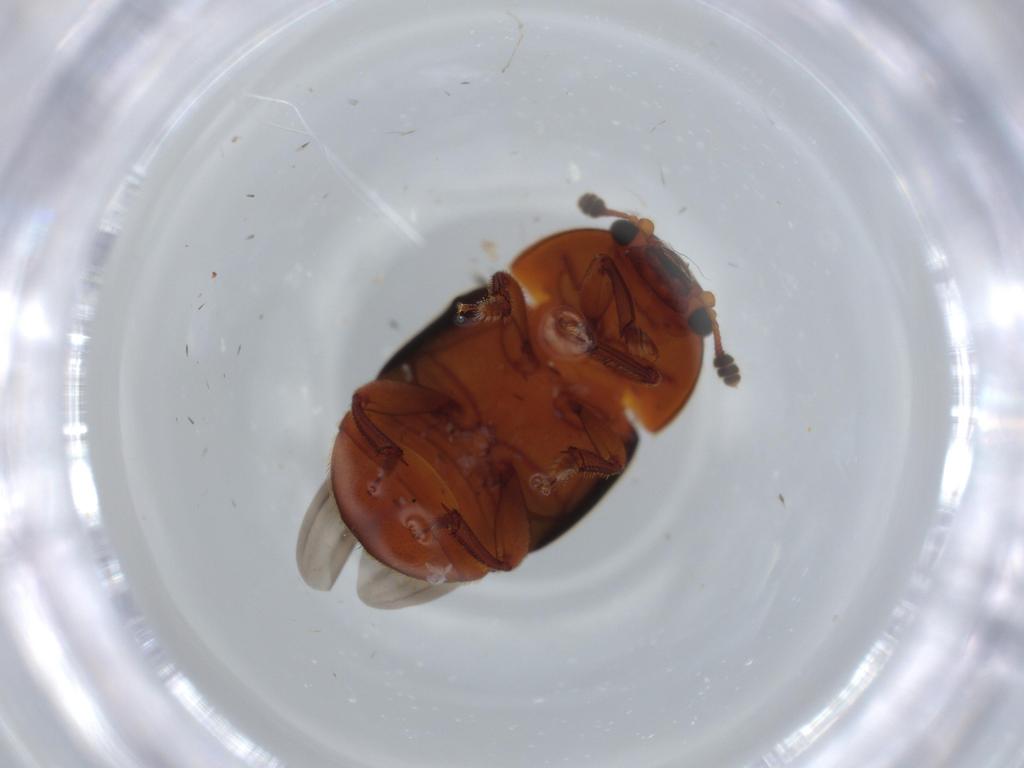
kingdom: Animalia
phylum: Arthropoda
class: Insecta
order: Coleoptera
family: Nitidulidae
